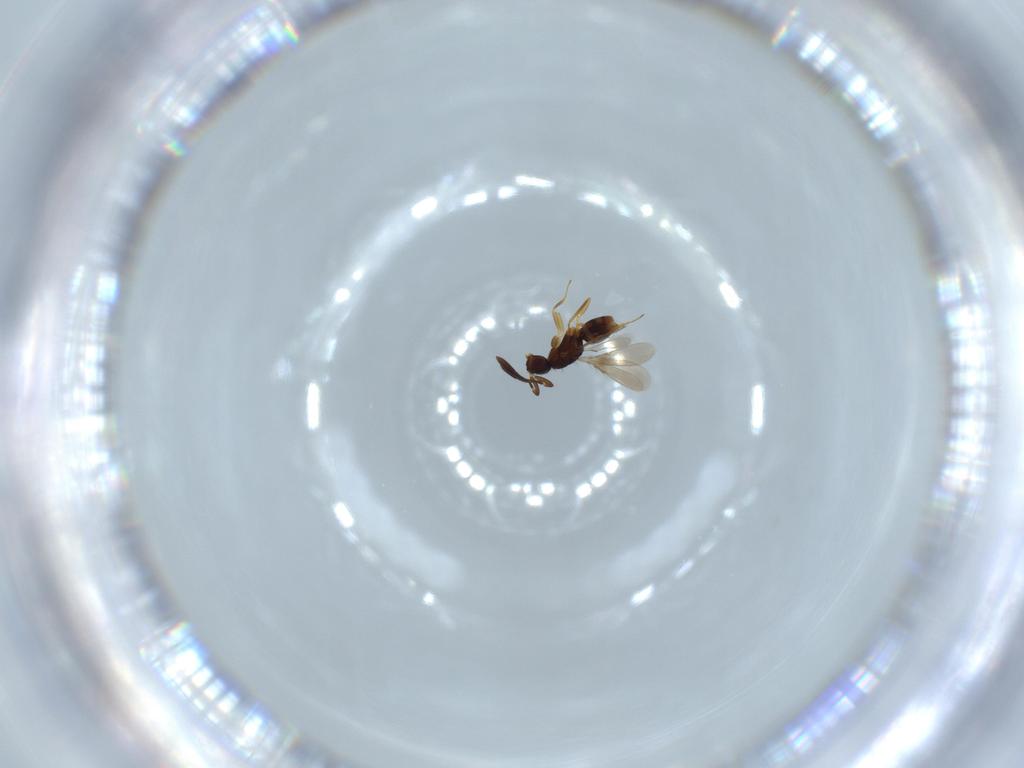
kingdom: Animalia
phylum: Arthropoda
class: Insecta
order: Hymenoptera
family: Mymaridae
